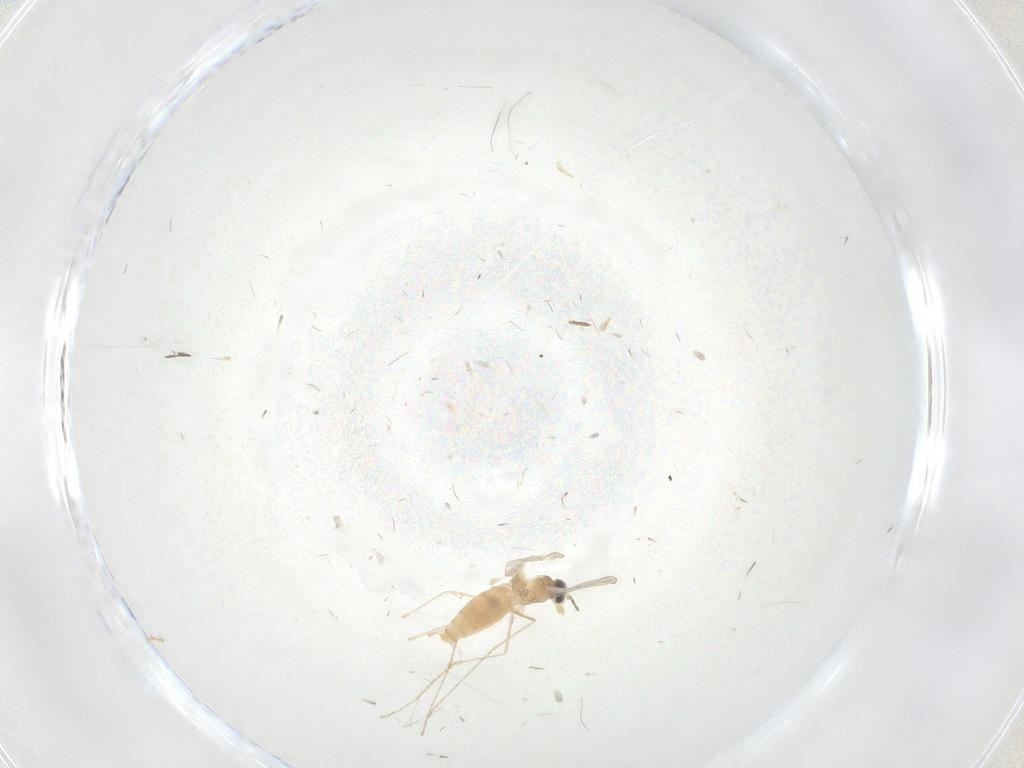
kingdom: Animalia
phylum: Arthropoda
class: Insecta
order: Diptera
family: Cecidomyiidae
